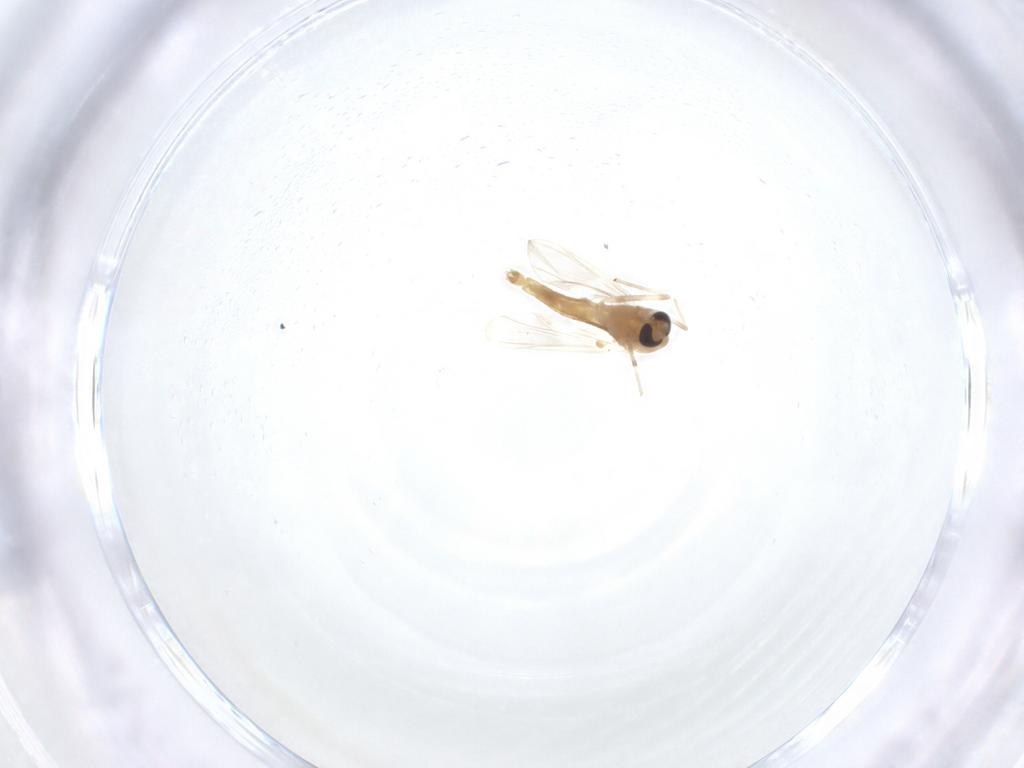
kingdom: Animalia
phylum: Arthropoda
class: Insecta
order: Diptera
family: Chironomidae
